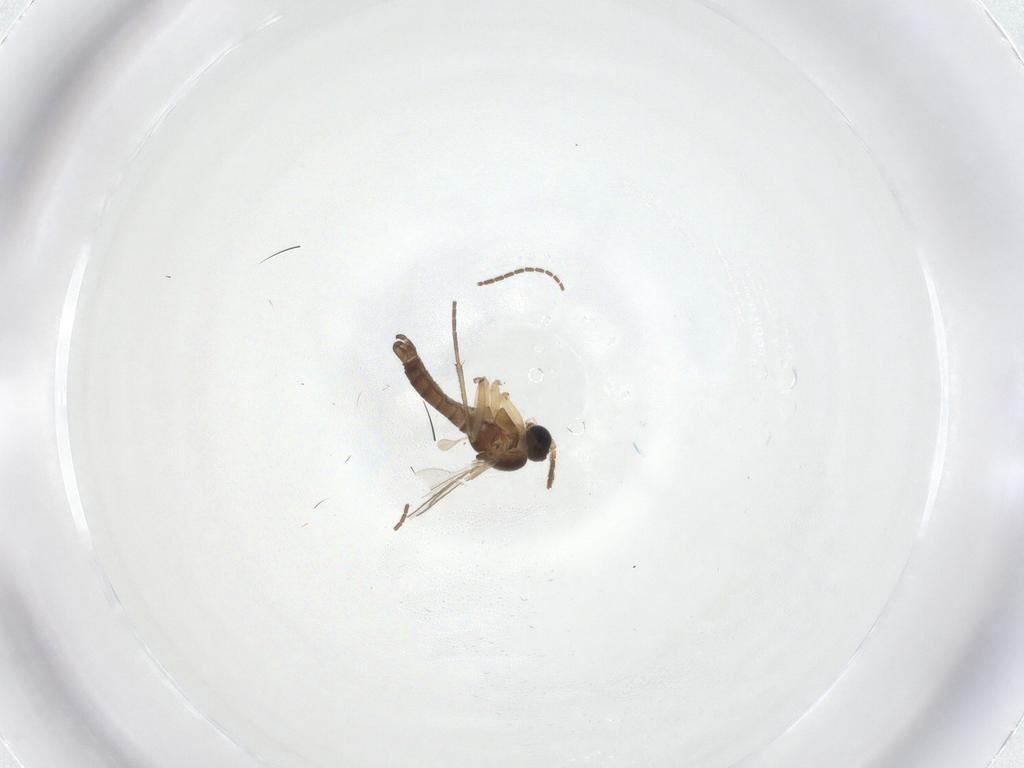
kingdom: Animalia
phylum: Arthropoda
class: Insecta
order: Diptera
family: Sciaridae
